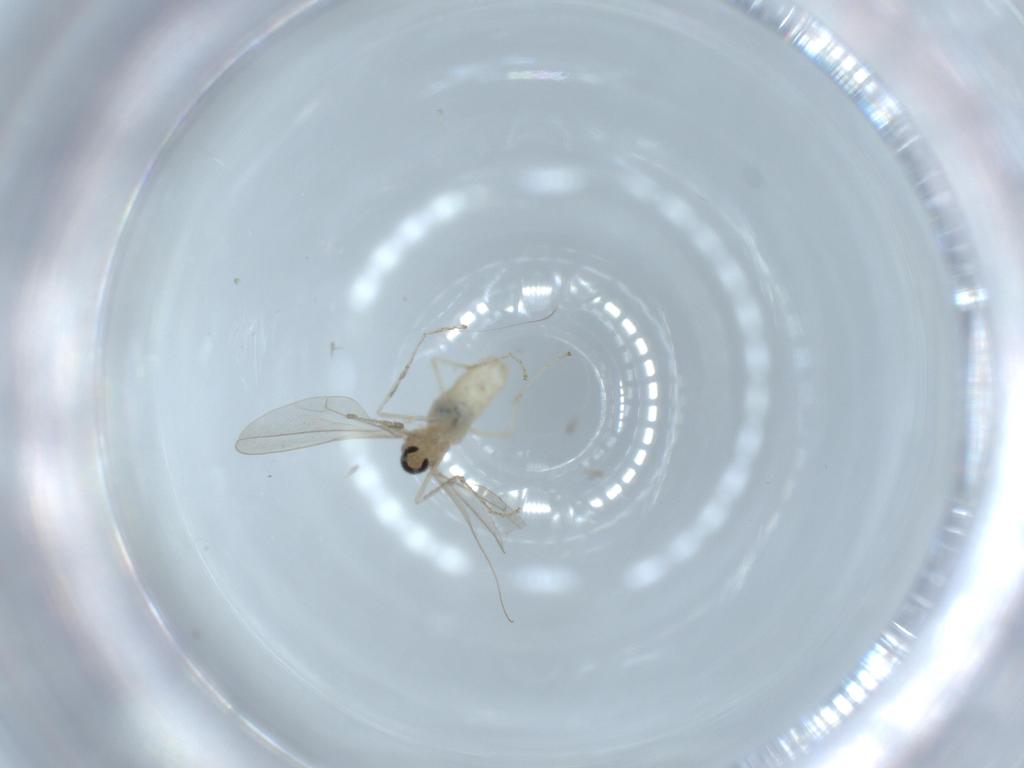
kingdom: Animalia
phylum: Arthropoda
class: Insecta
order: Diptera
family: Cecidomyiidae
